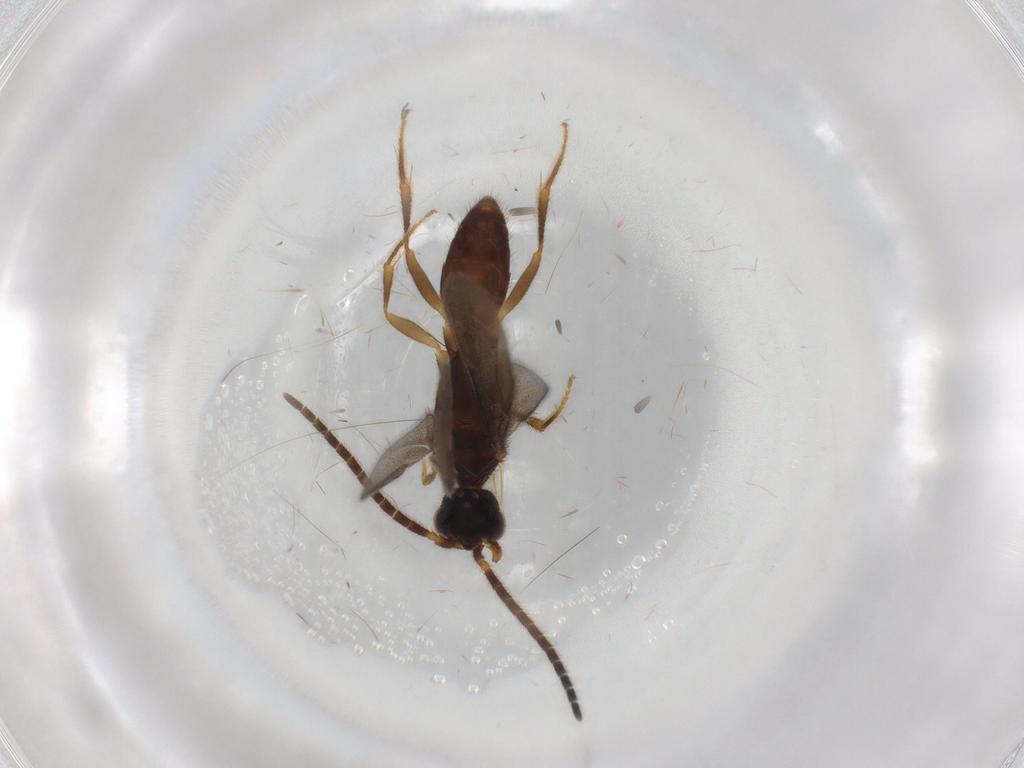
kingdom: Animalia
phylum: Arthropoda
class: Insecta
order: Hymenoptera
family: Bethylidae
